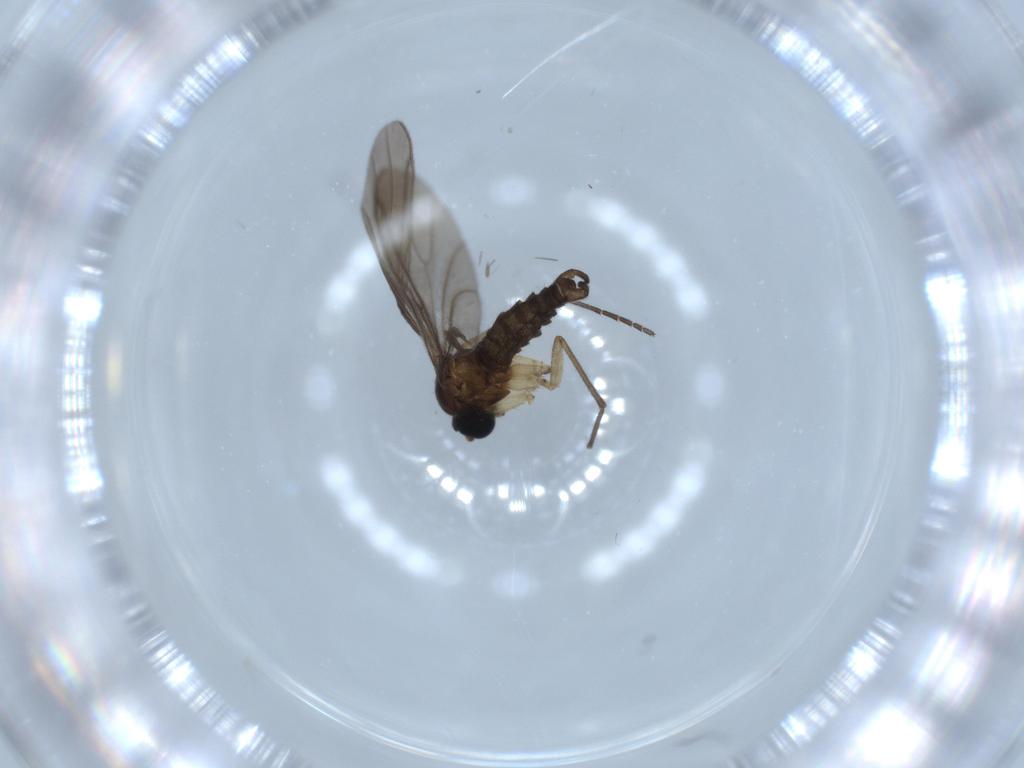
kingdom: Animalia
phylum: Arthropoda
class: Insecta
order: Diptera
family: Sciaridae
